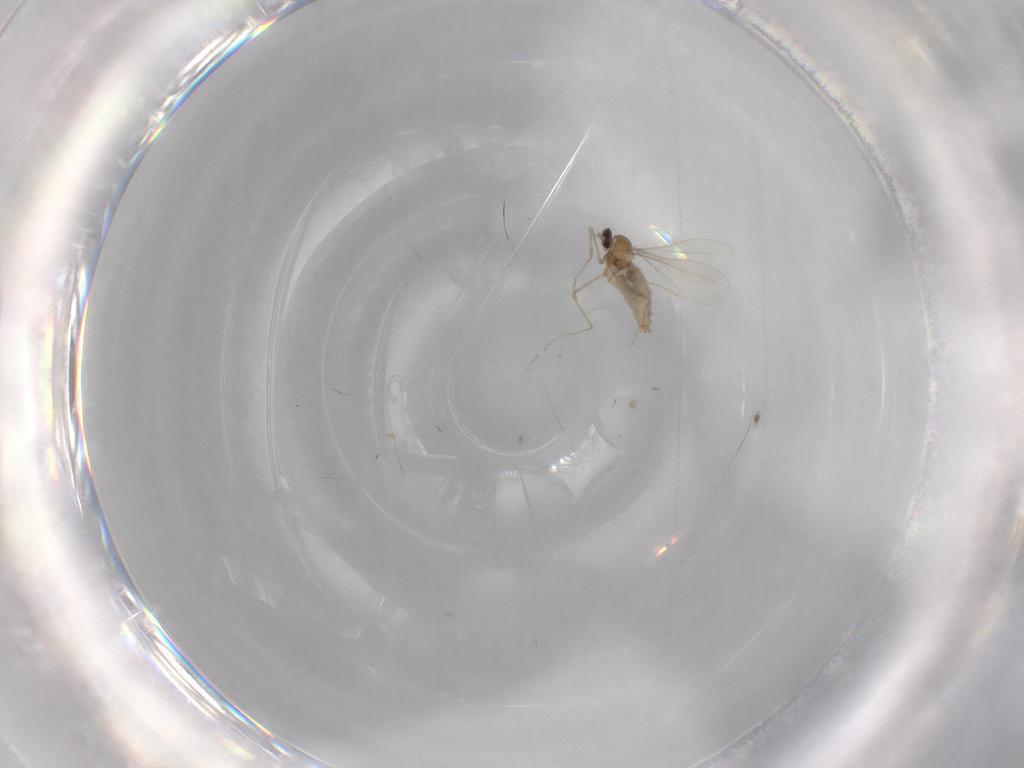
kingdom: Animalia
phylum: Arthropoda
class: Insecta
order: Diptera
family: Cecidomyiidae
